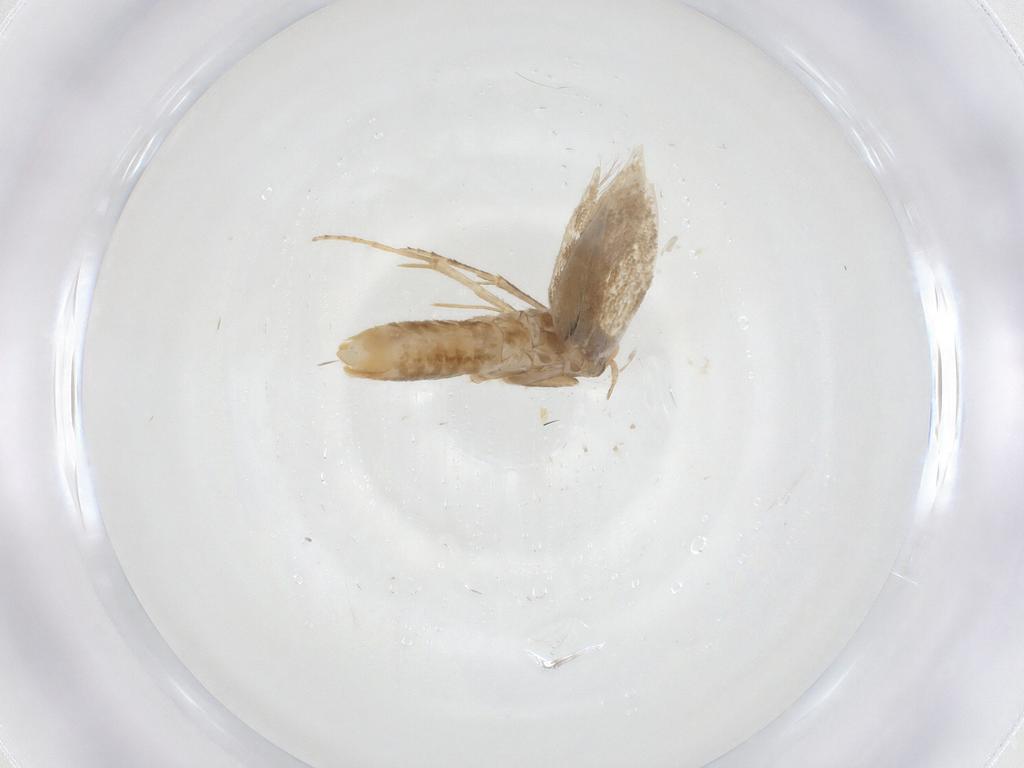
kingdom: Animalia
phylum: Arthropoda
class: Insecta
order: Lepidoptera
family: Bucculatricidae
